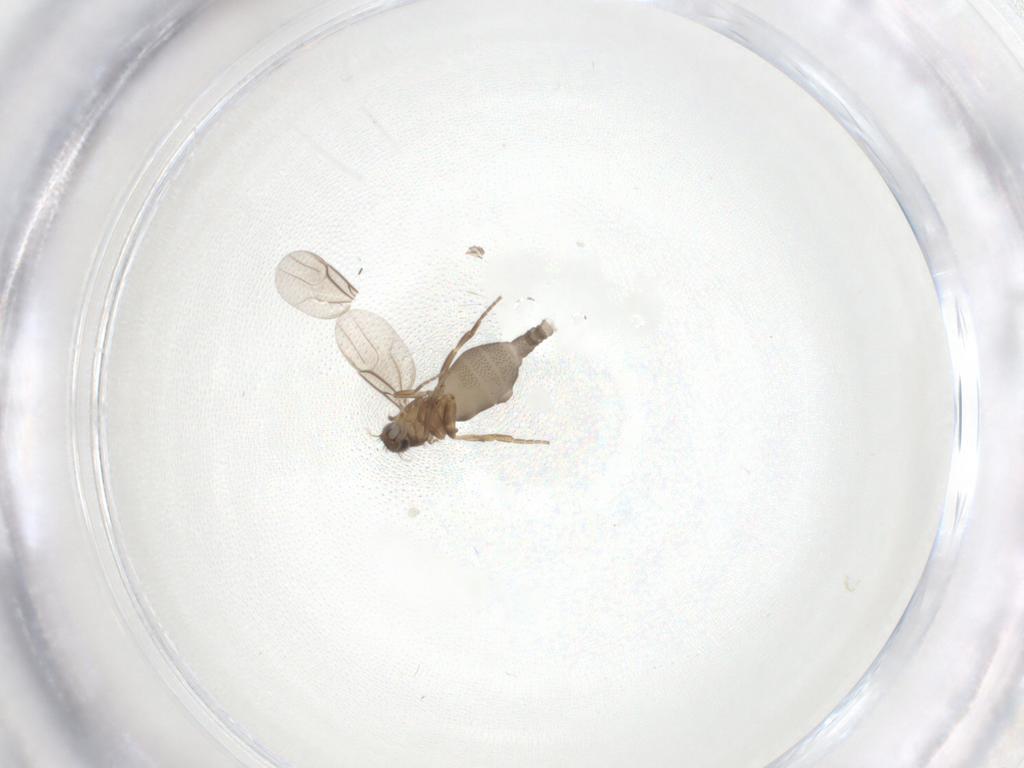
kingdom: Animalia
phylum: Arthropoda
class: Insecta
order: Diptera
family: Phoridae
